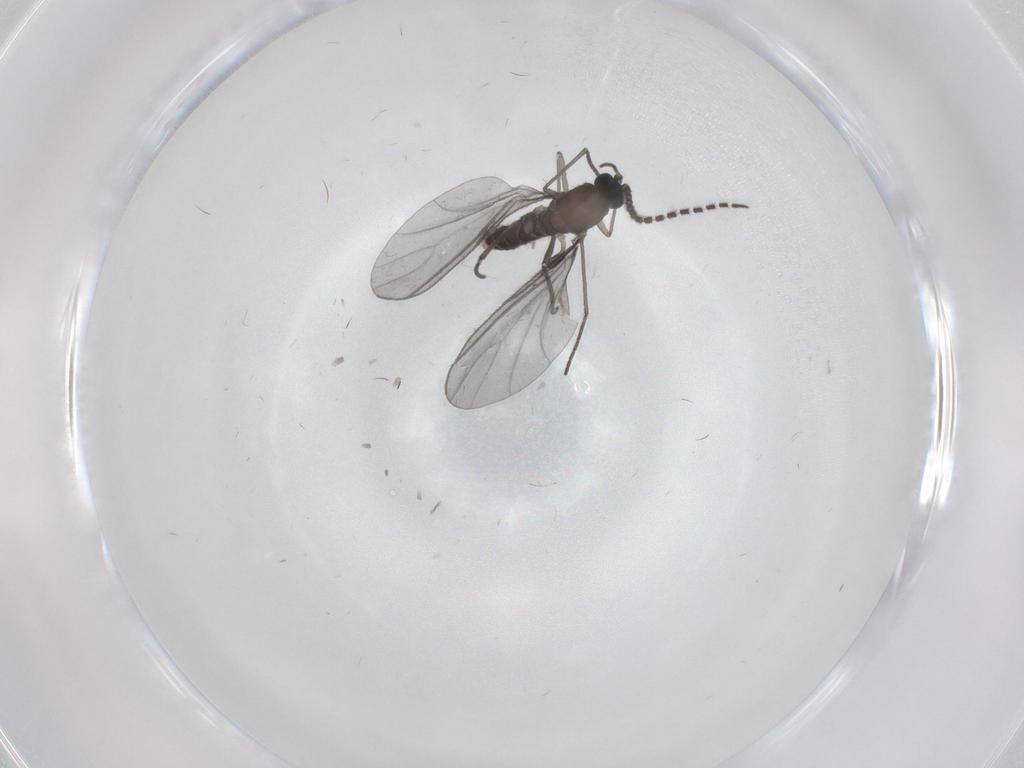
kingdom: Animalia
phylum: Arthropoda
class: Insecta
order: Diptera
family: Sciaridae
